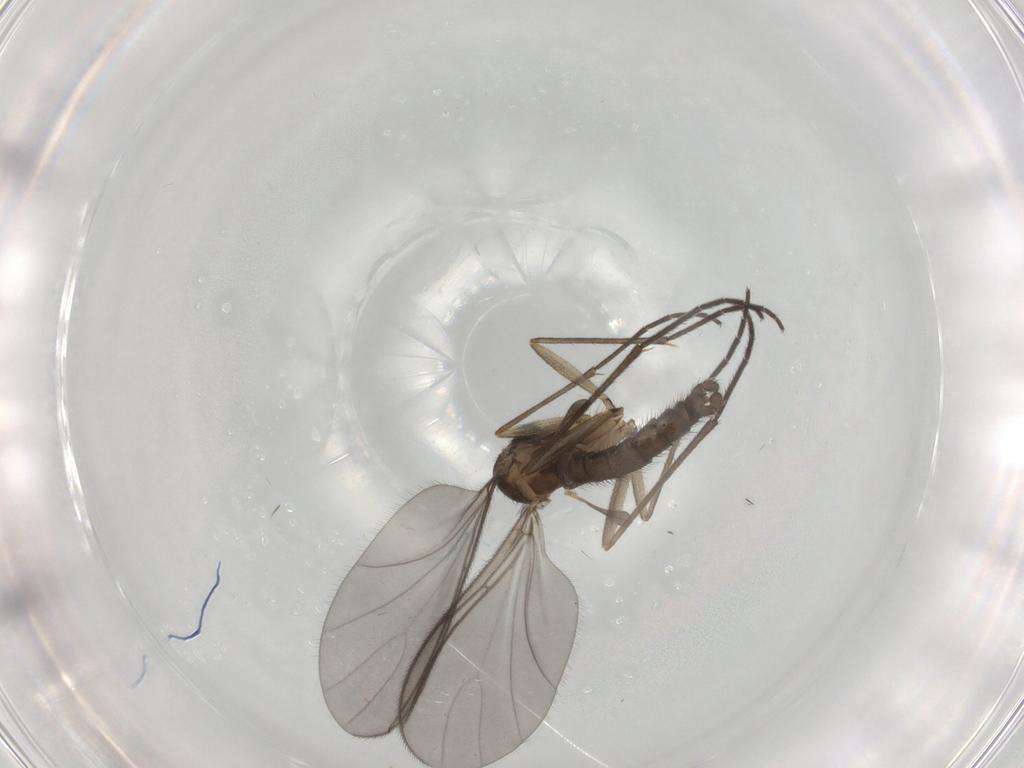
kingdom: Animalia
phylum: Arthropoda
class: Insecta
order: Diptera
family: Sciaridae
